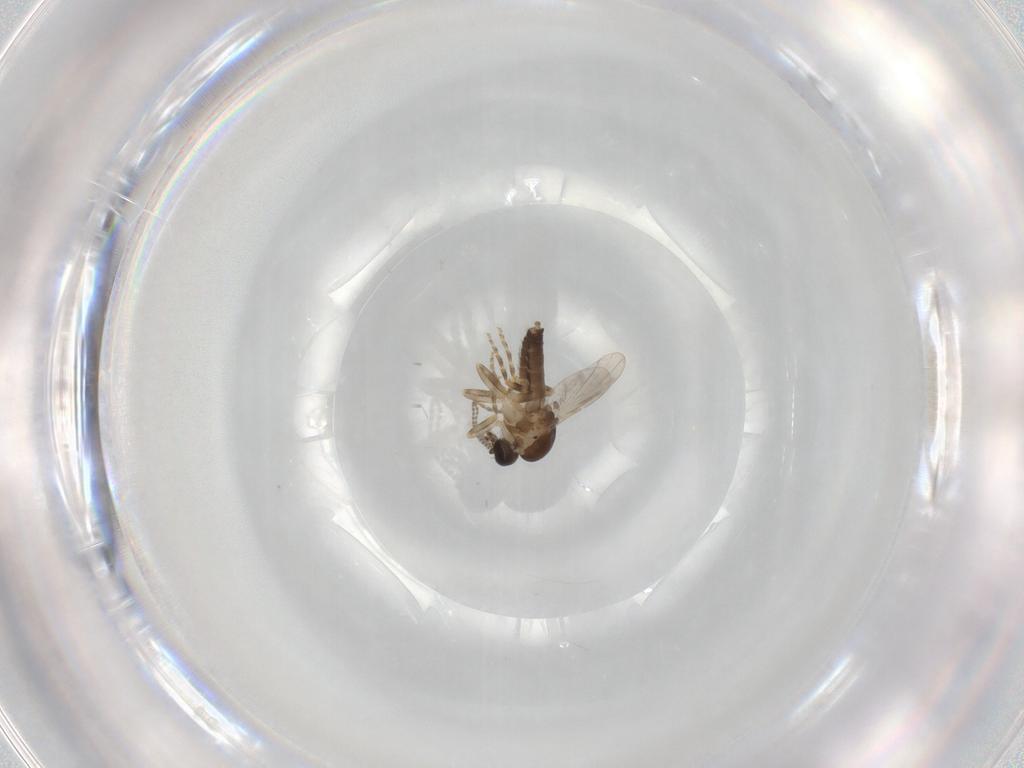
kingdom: Animalia
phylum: Arthropoda
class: Insecta
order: Diptera
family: Ceratopogonidae
